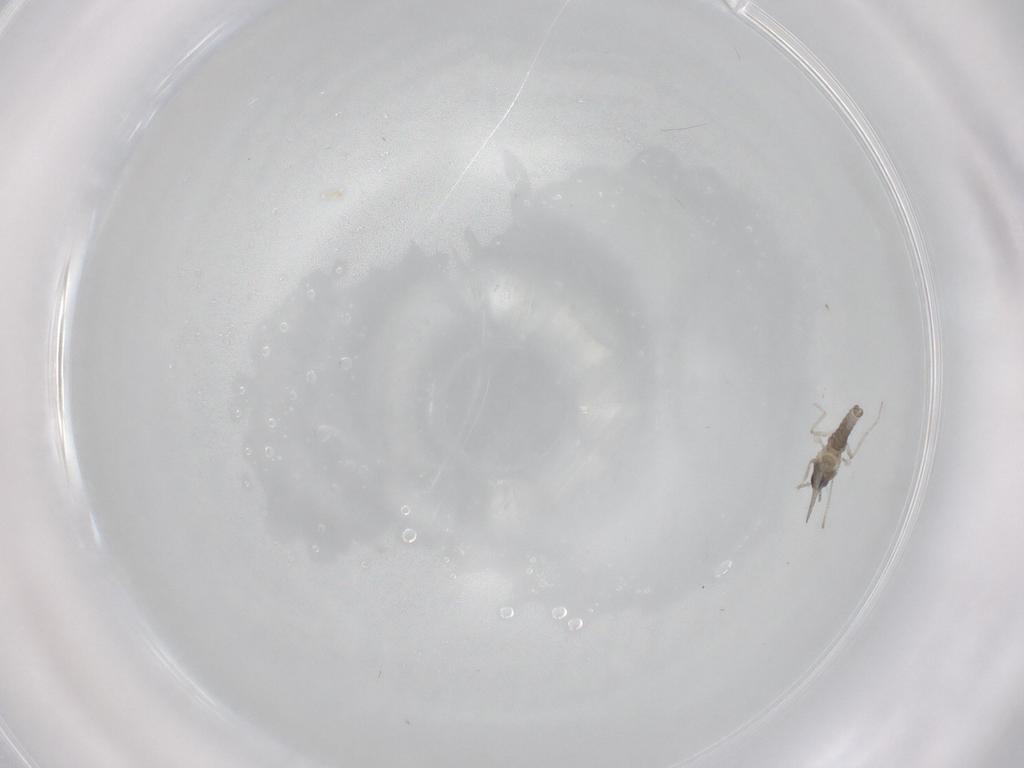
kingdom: Animalia
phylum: Arthropoda
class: Insecta
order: Diptera
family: Cecidomyiidae
